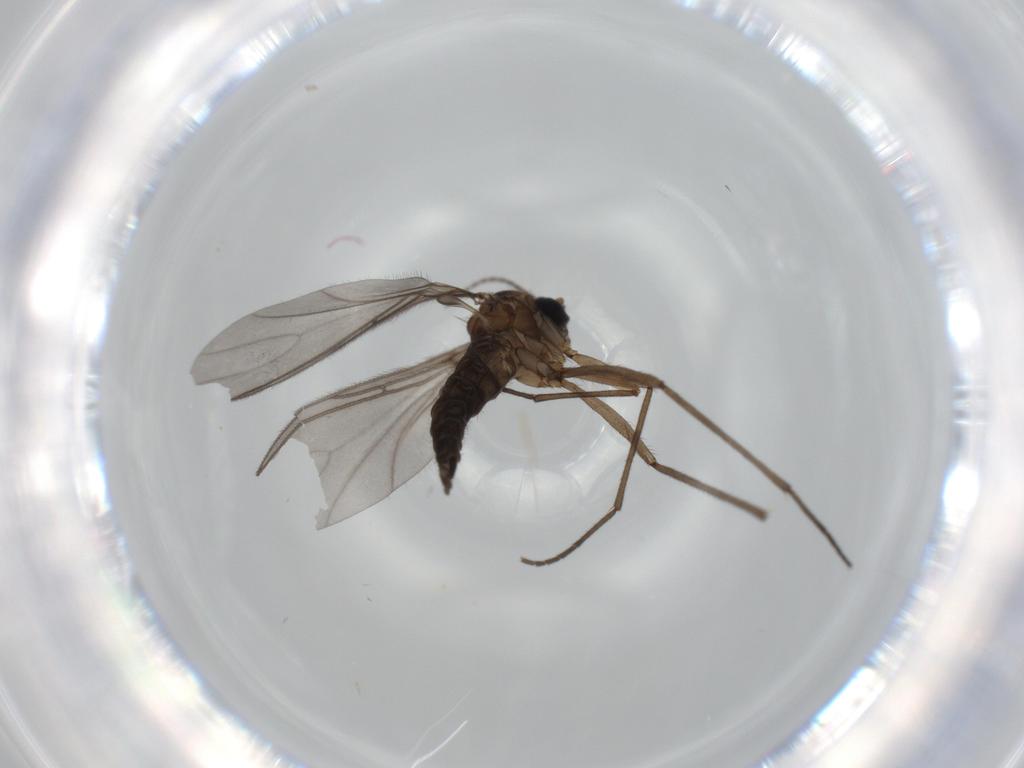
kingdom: Animalia
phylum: Arthropoda
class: Insecta
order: Diptera
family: Sciaridae
